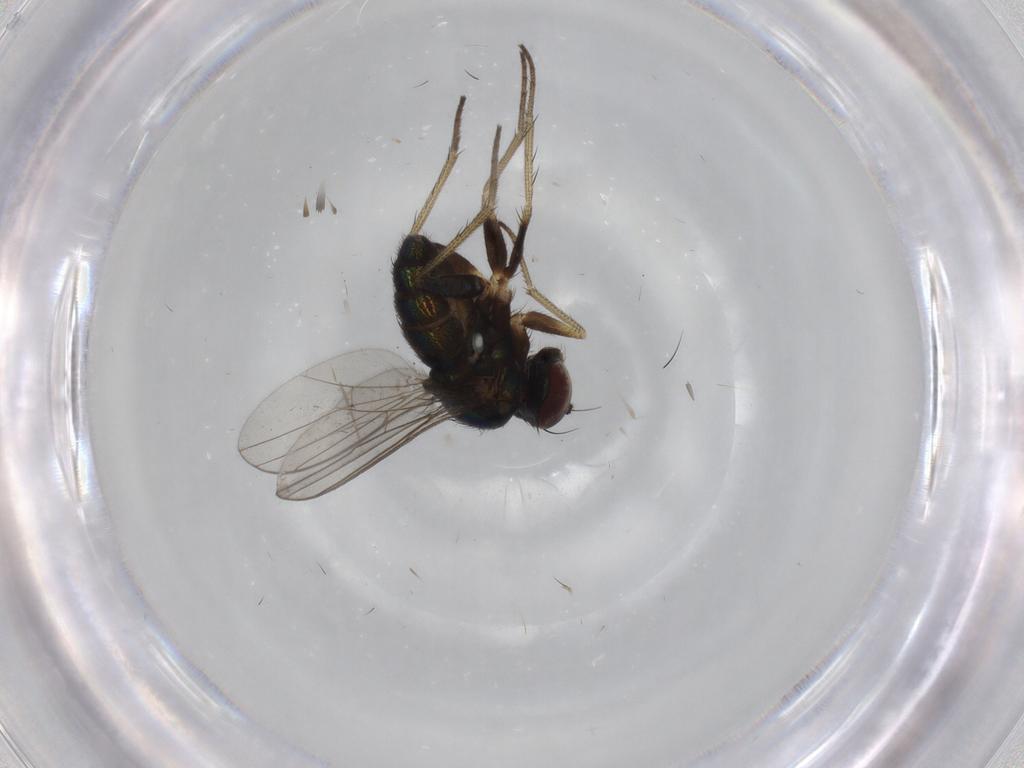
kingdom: Animalia
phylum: Arthropoda
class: Insecta
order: Diptera
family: Dolichopodidae
